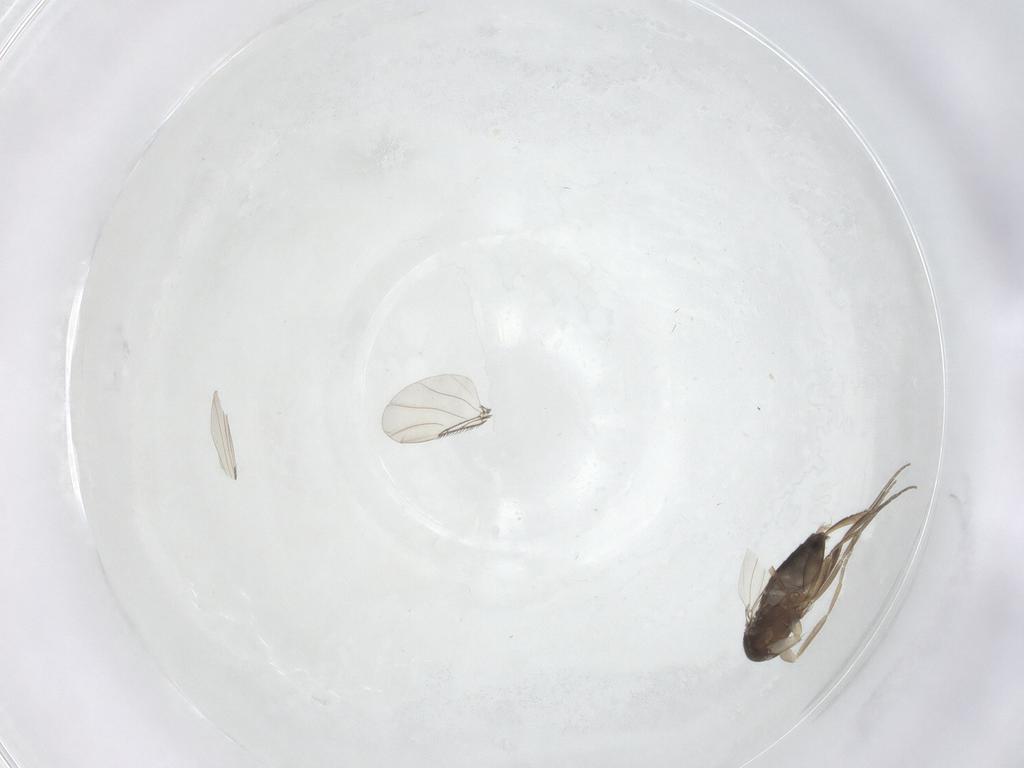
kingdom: Animalia
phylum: Arthropoda
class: Insecta
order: Diptera
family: Phoridae
